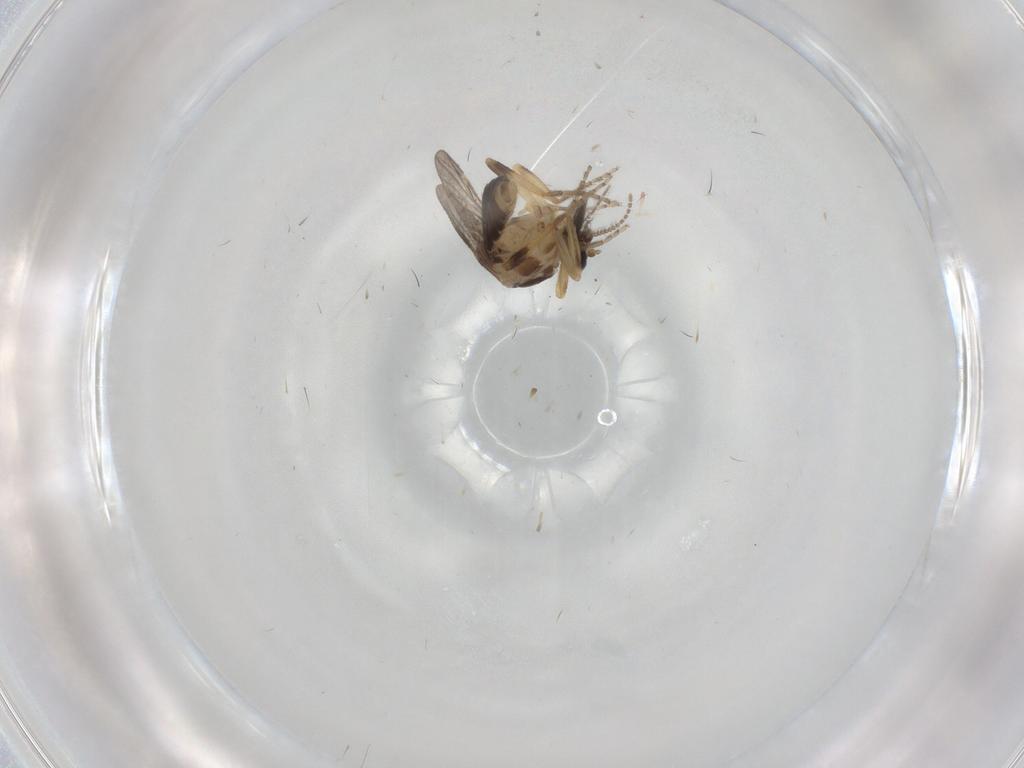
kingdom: Animalia
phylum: Arthropoda
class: Insecta
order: Diptera
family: Ceratopogonidae
